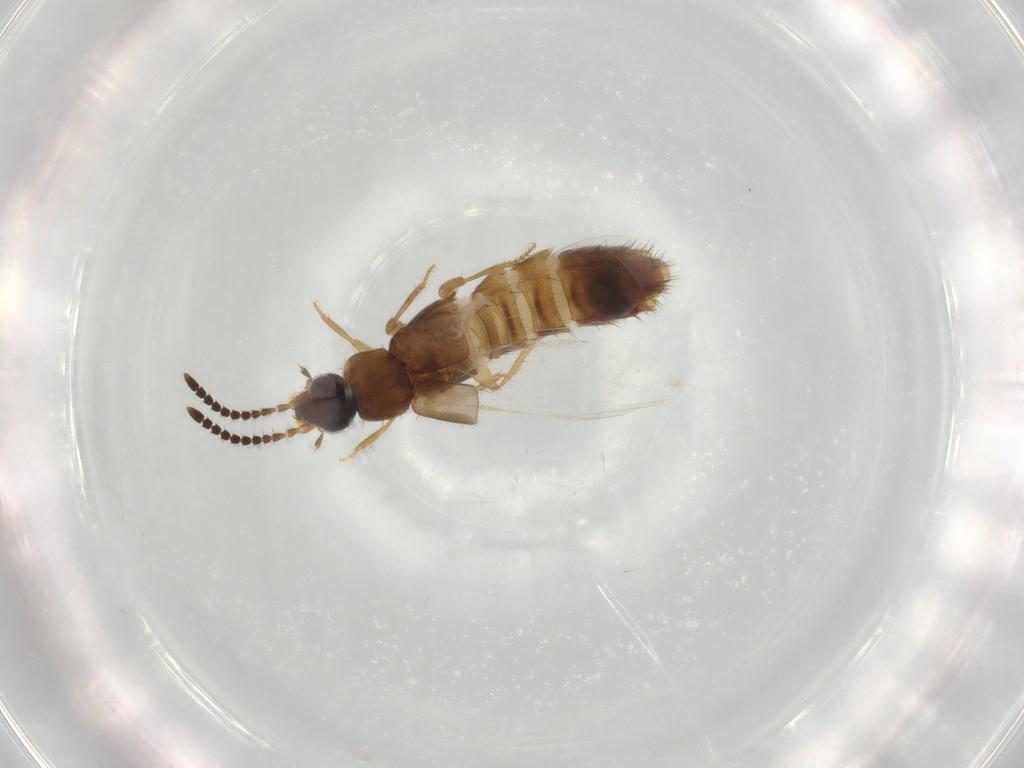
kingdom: Animalia
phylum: Arthropoda
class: Insecta
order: Coleoptera
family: Staphylinidae
